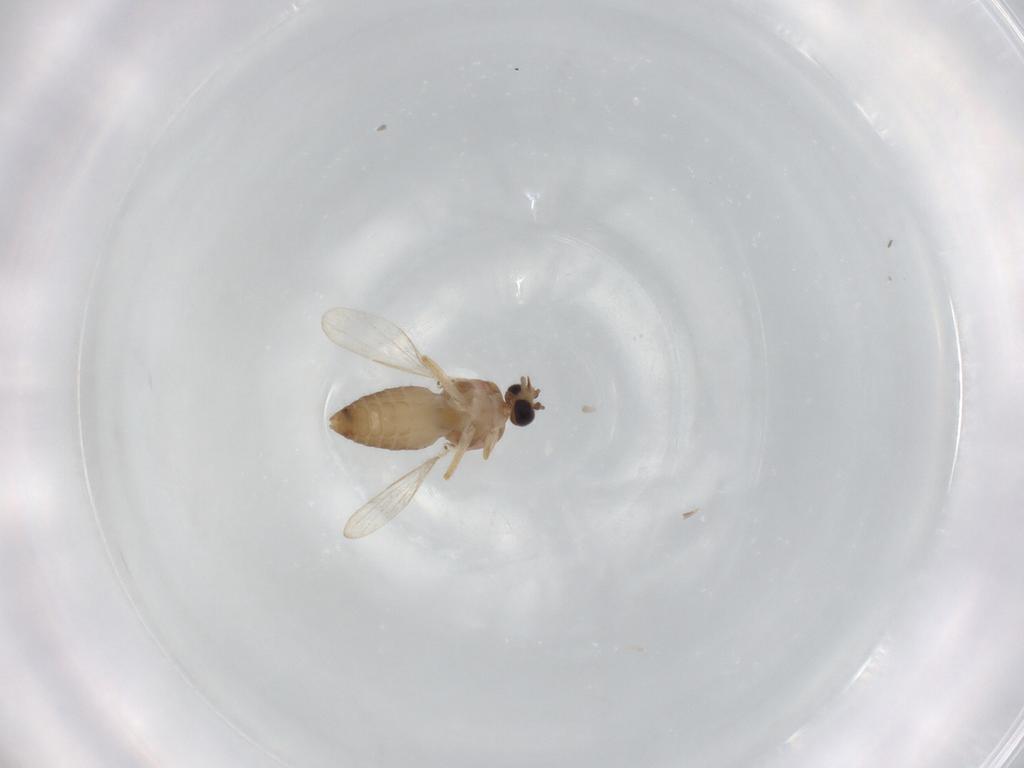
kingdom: Animalia
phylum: Arthropoda
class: Insecta
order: Diptera
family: Ceratopogonidae
